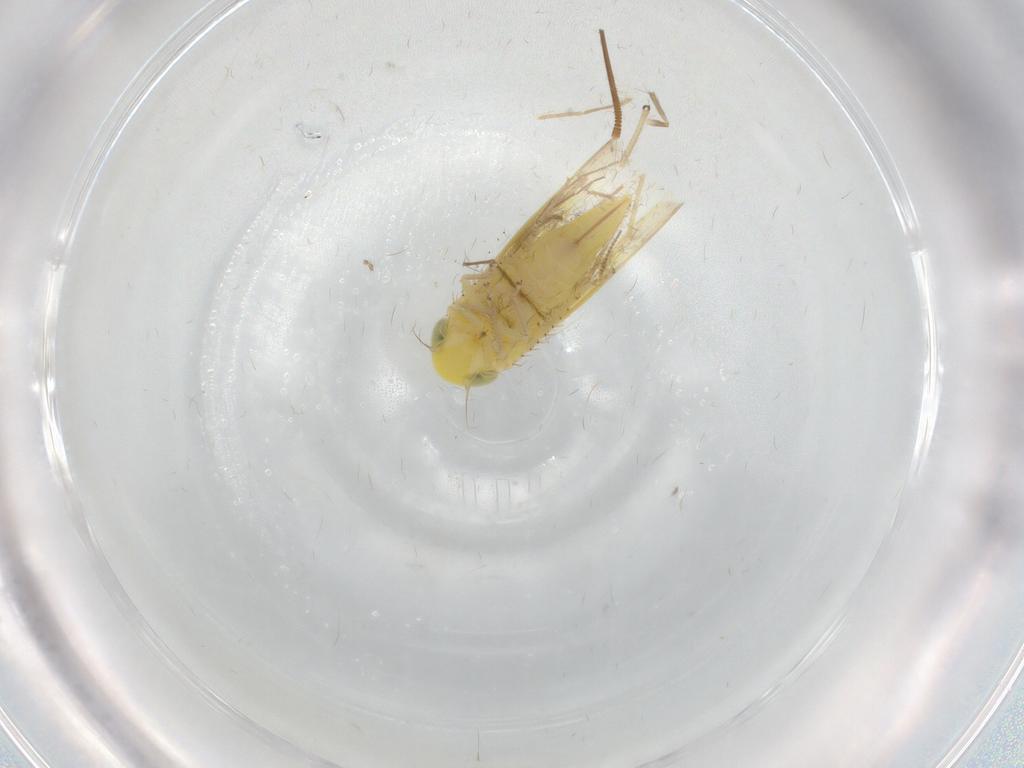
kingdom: Animalia
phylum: Arthropoda
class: Insecta
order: Hemiptera
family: Cicadellidae
